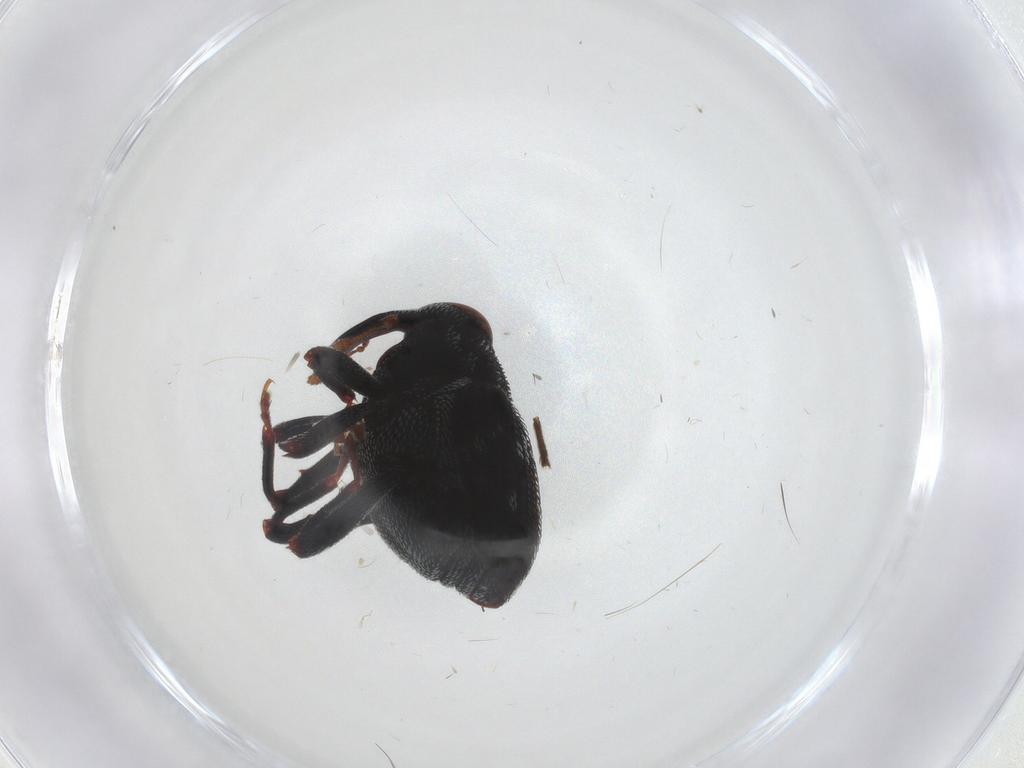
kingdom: Animalia
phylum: Arthropoda
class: Insecta
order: Coleoptera
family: Curculionidae
